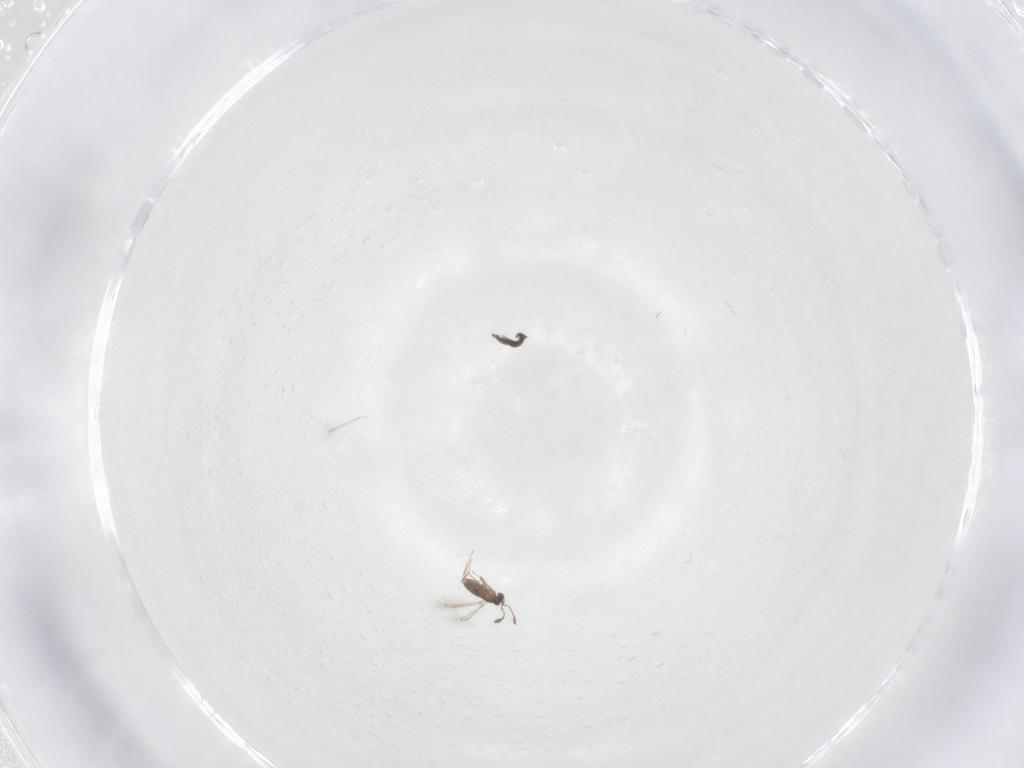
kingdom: Animalia
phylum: Arthropoda
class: Insecta
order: Hymenoptera
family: Mymaridae
